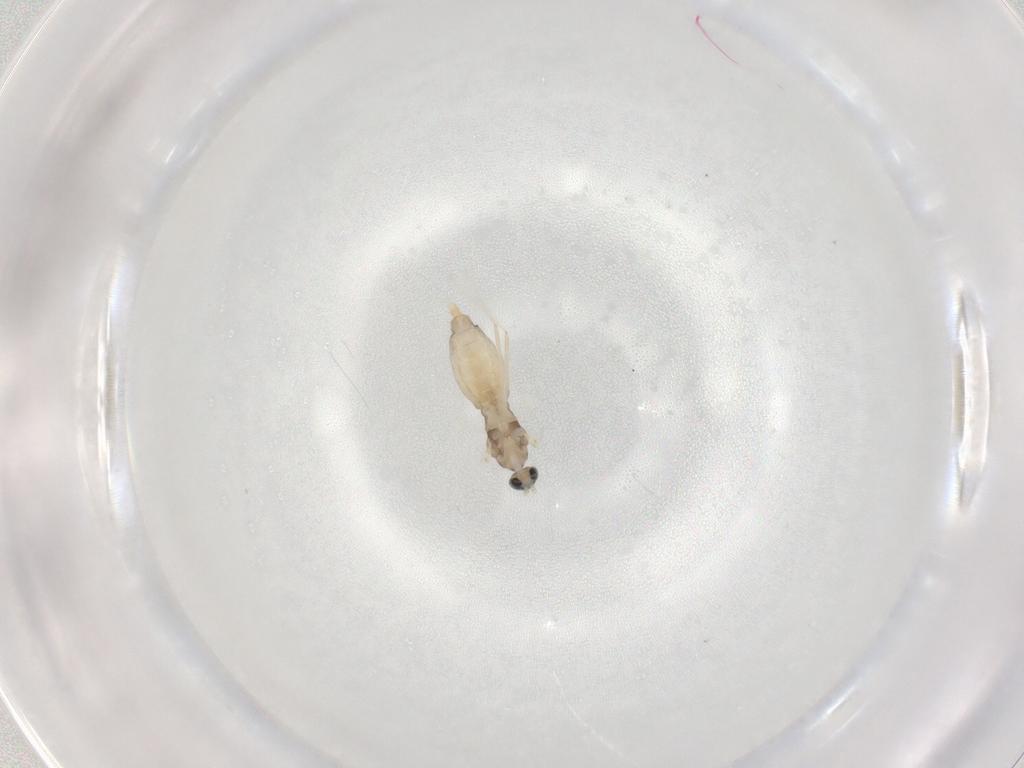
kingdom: Animalia
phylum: Arthropoda
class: Insecta
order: Diptera
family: Cecidomyiidae
